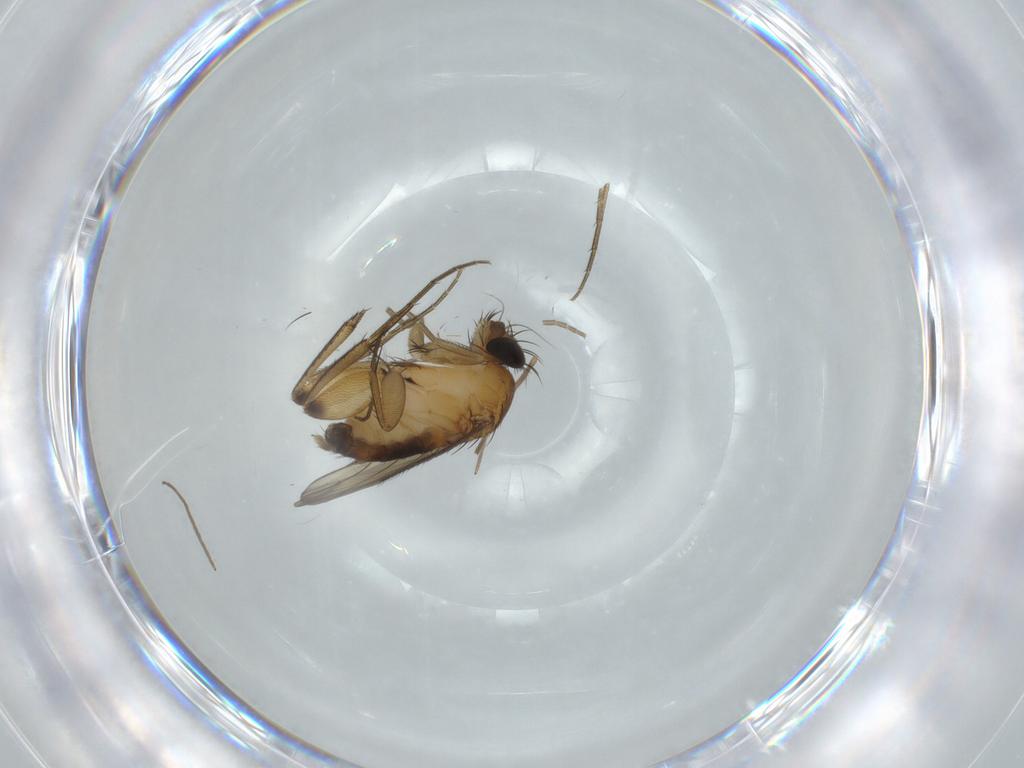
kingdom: Animalia
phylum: Arthropoda
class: Insecta
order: Diptera
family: Phoridae
